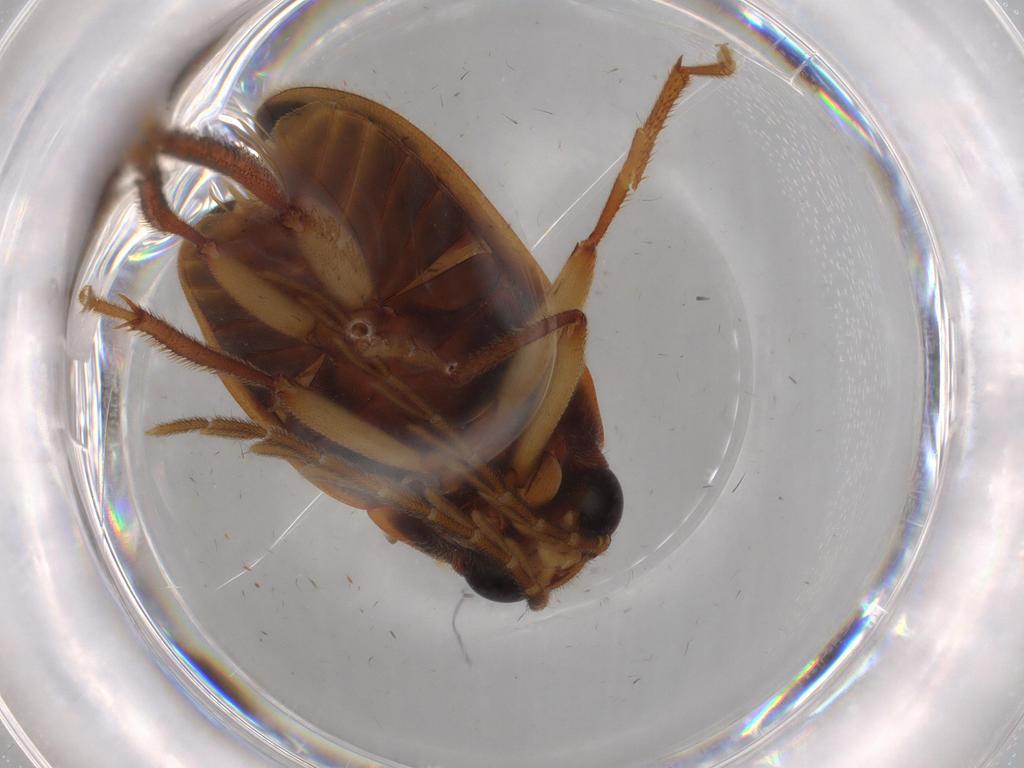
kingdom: Animalia
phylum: Arthropoda
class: Insecta
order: Coleoptera
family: Ptilodactylidae
